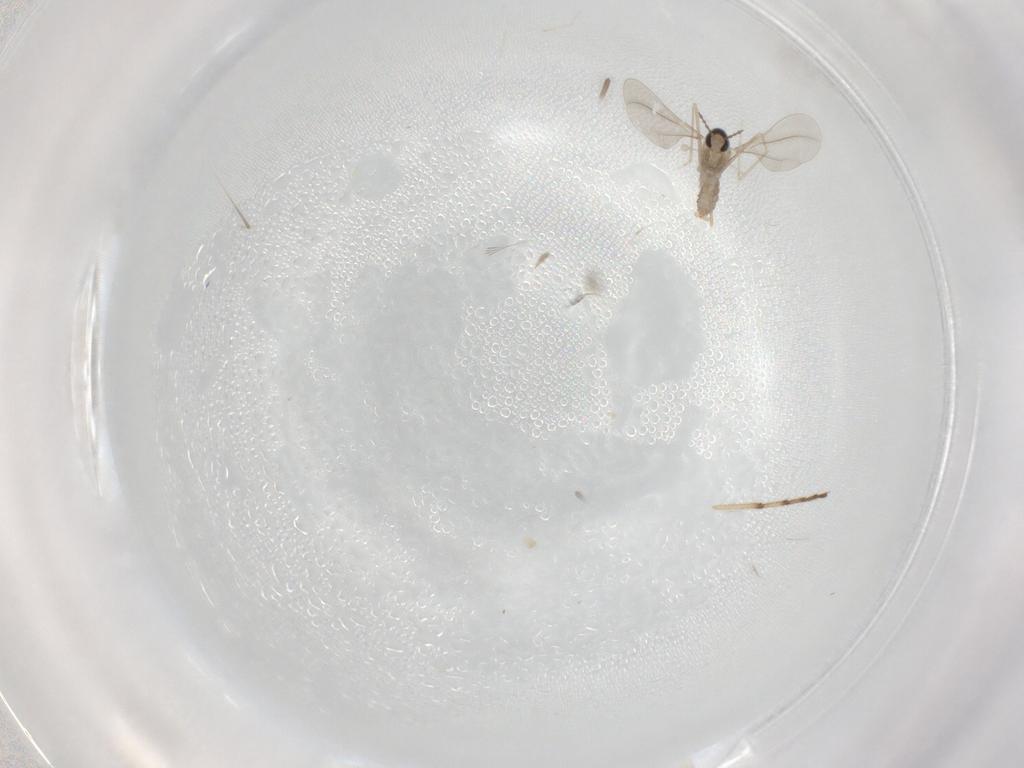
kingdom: Animalia
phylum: Arthropoda
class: Insecta
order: Diptera
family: Cecidomyiidae
